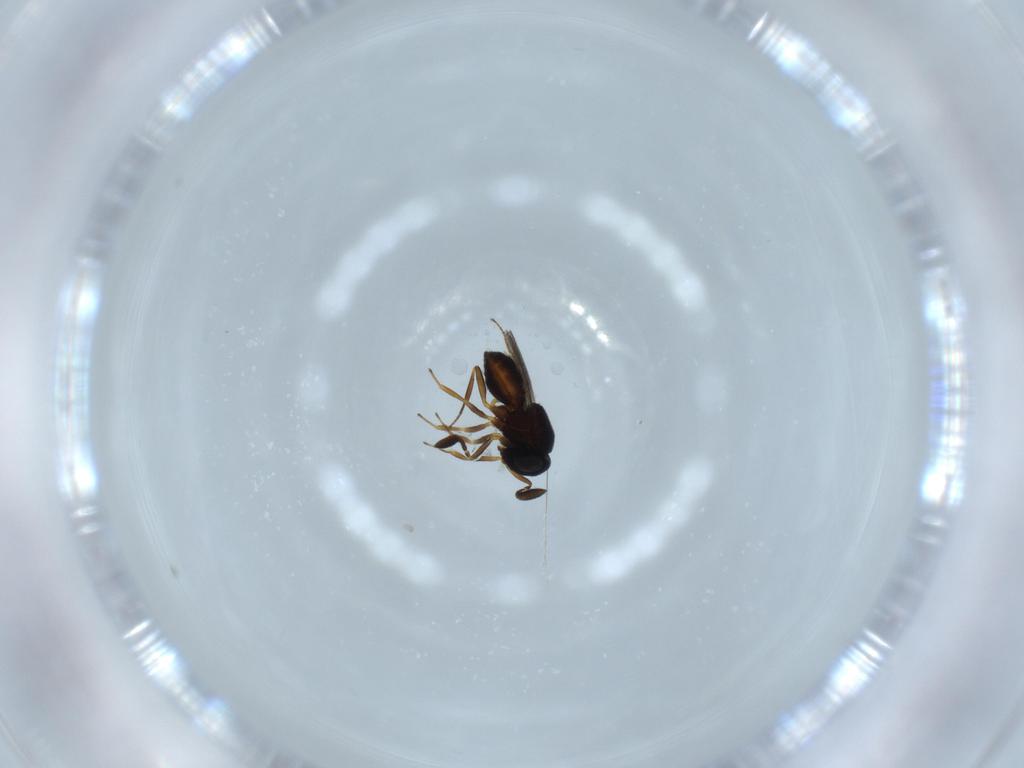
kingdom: Animalia
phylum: Arthropoda
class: Insecta
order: Hymenoptera
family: Scelionidae
